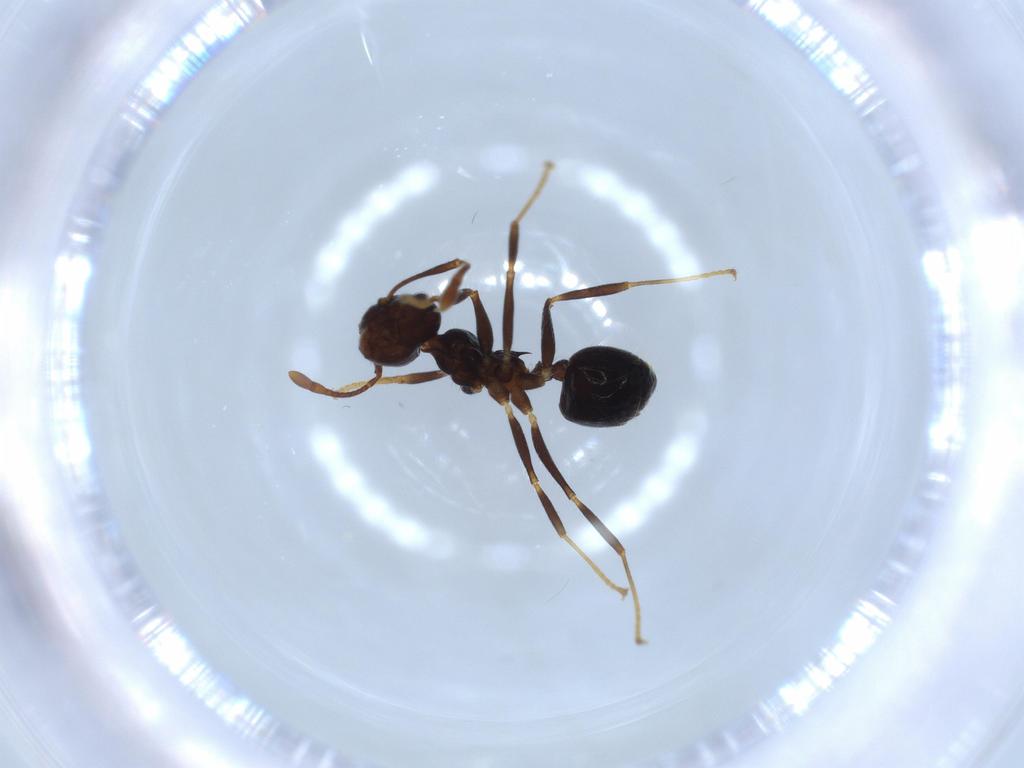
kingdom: Animalia
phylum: Arthropoda
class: Insecta
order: Hymenoptera
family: Formicidae
